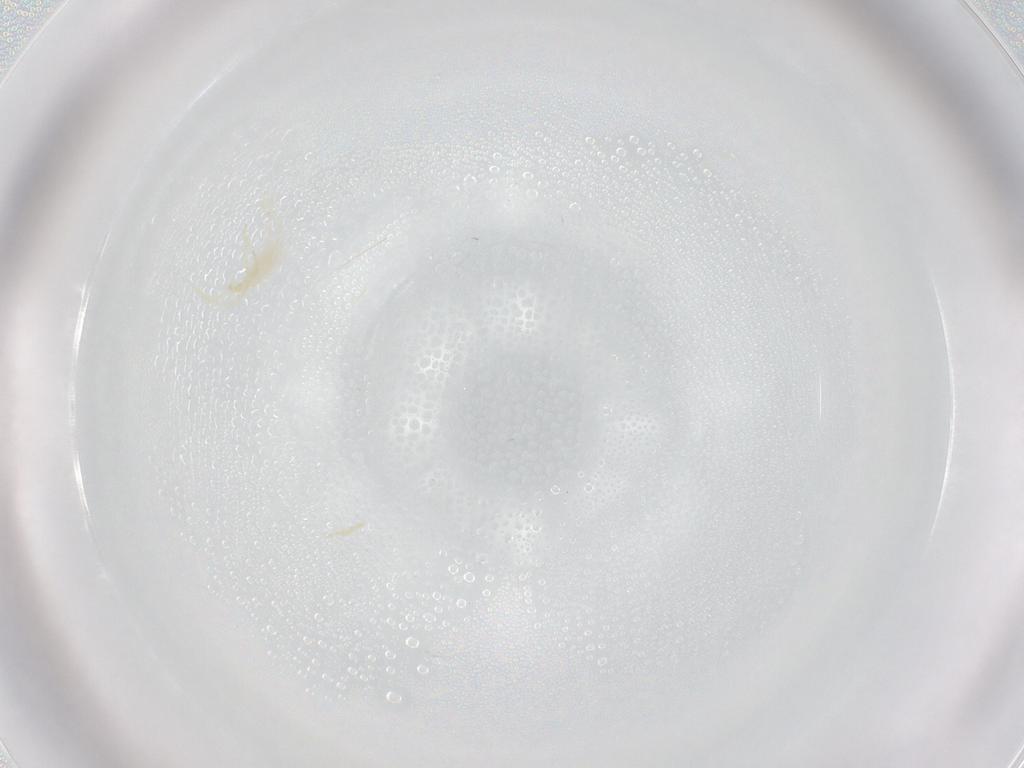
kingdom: Animalia
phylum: Arthropoda
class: Arachnida
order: Trombidiformes
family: Erythraeidae
